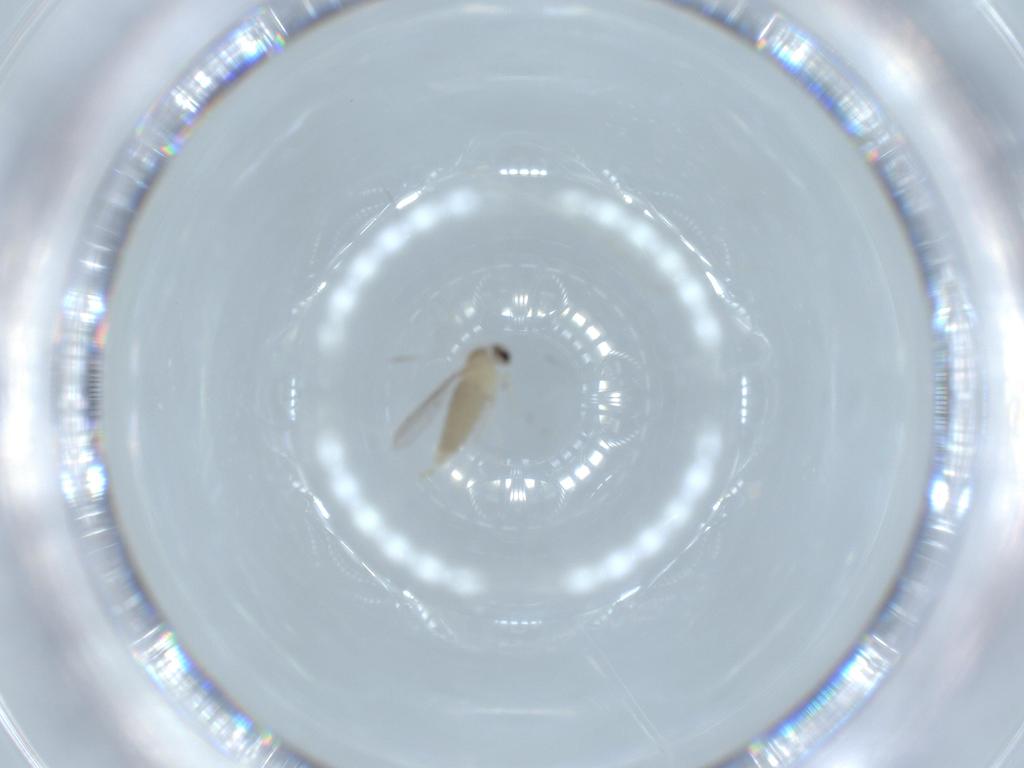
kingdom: Animalia
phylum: Arthropoda
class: Insecta
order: Diptera
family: Cecidomyiidae
